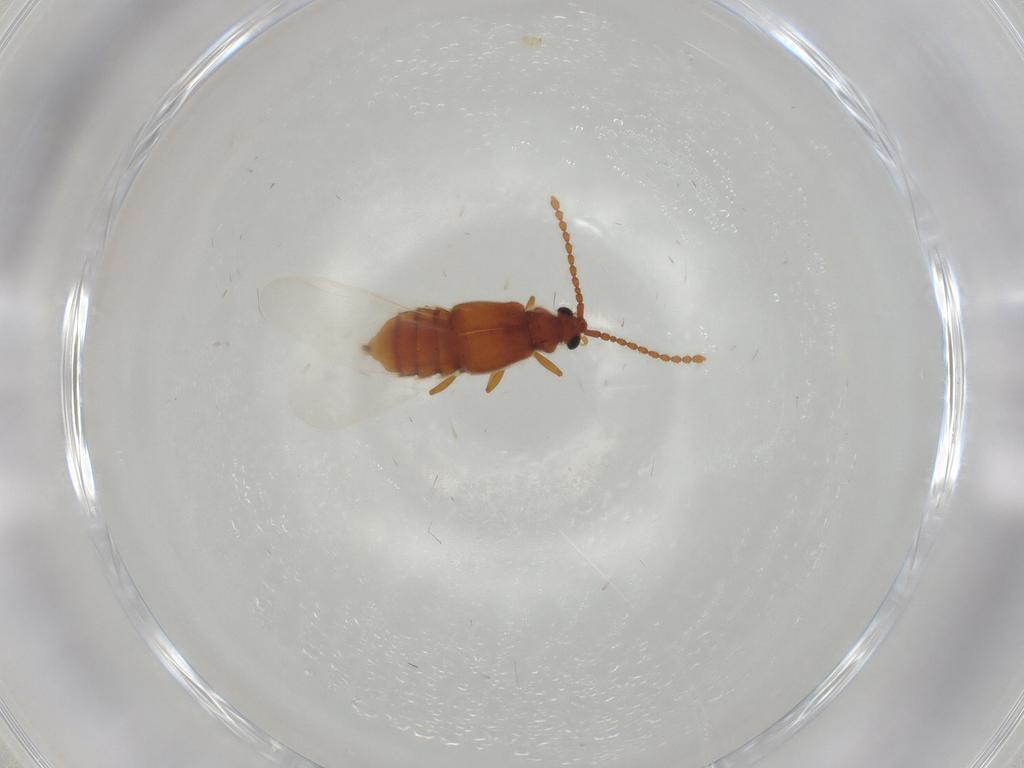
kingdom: Animalia
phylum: Arthropoda
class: Insecta
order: Coleoptera
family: Staphylinidae
